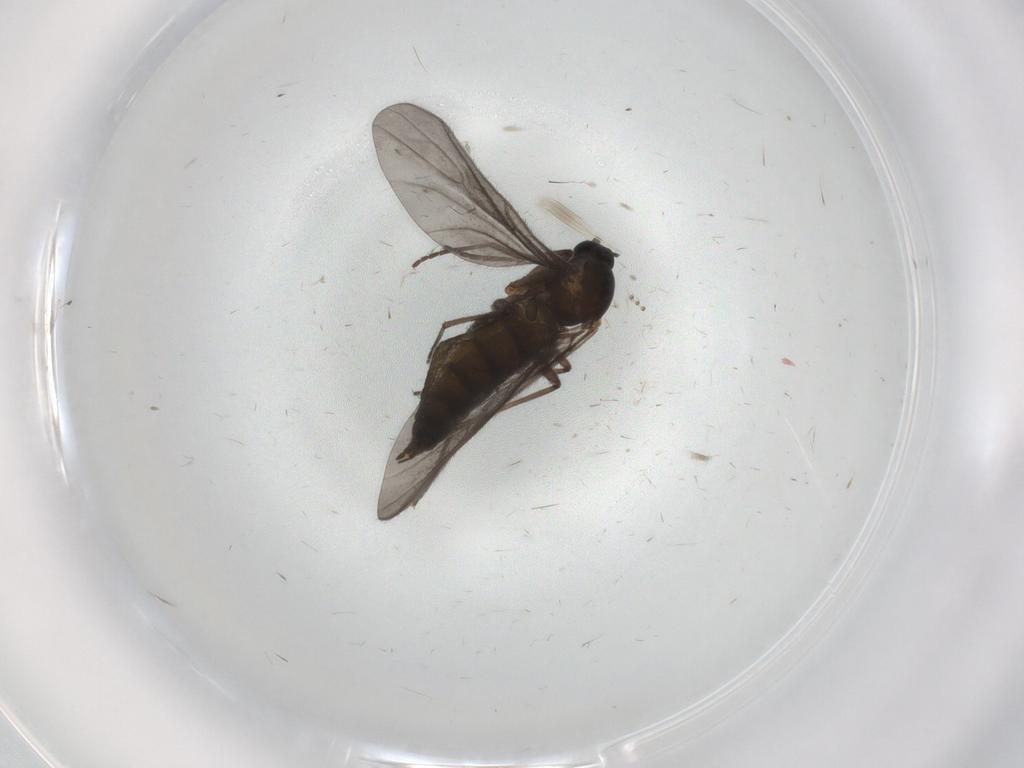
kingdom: Animalia
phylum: Arthropoda
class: Insecta
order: Diptera
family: Sciaridae
